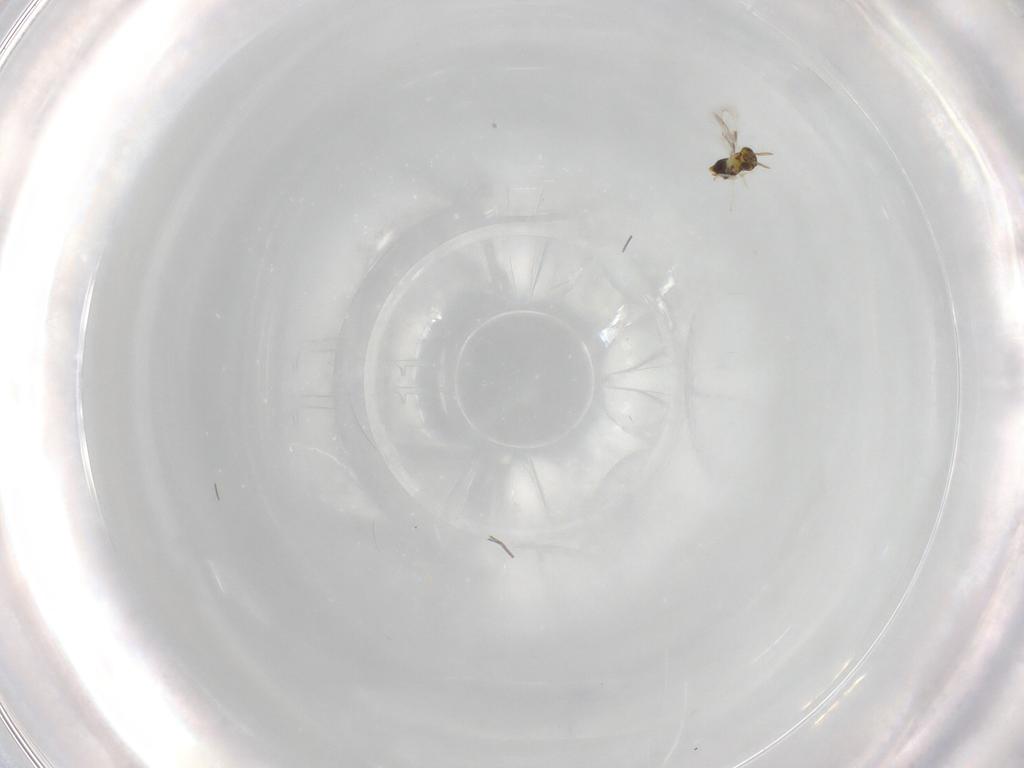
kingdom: Animalia
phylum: Arthropoda
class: Insecta
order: Hymenoptera
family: Aphelinidae
